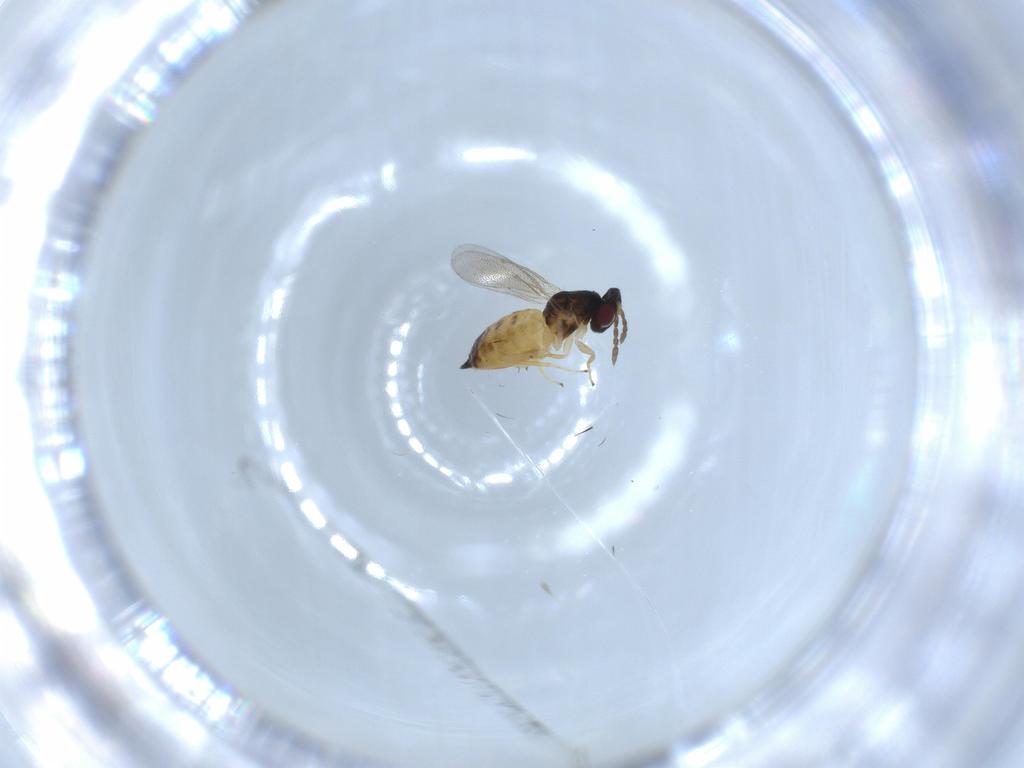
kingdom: Animalia
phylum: Arthropoda
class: Insecta
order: Hymenoptera
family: Eulophidae
